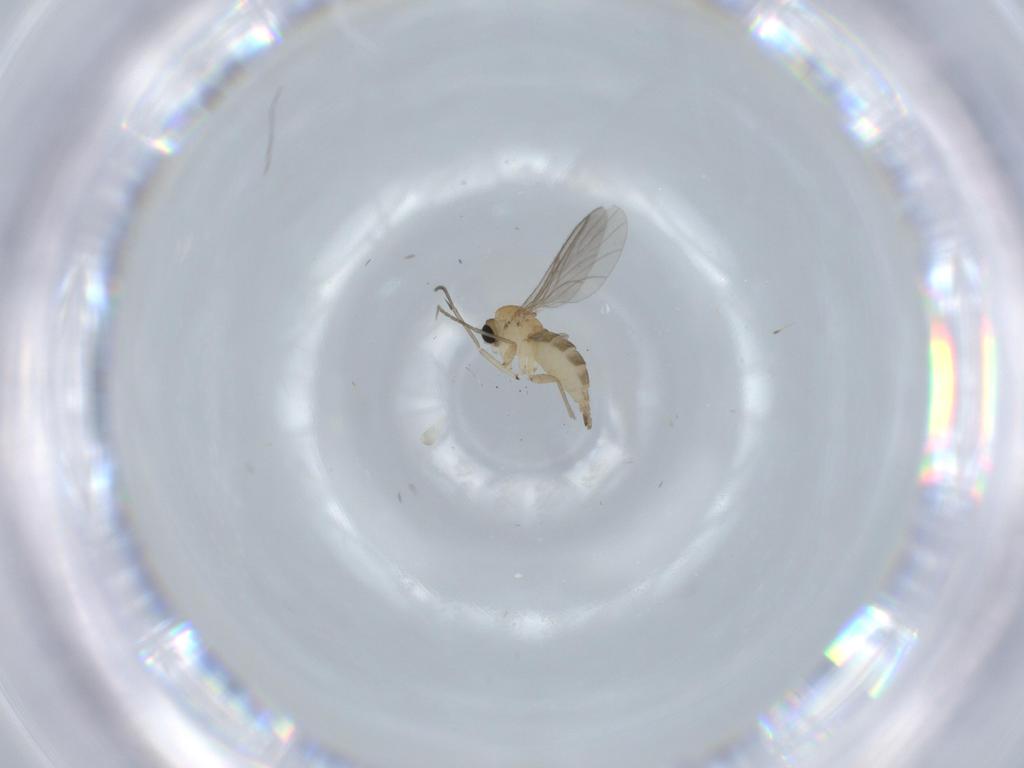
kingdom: Animalia
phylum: Arthropoda
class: Insecta
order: Diptera
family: Sciaridae
